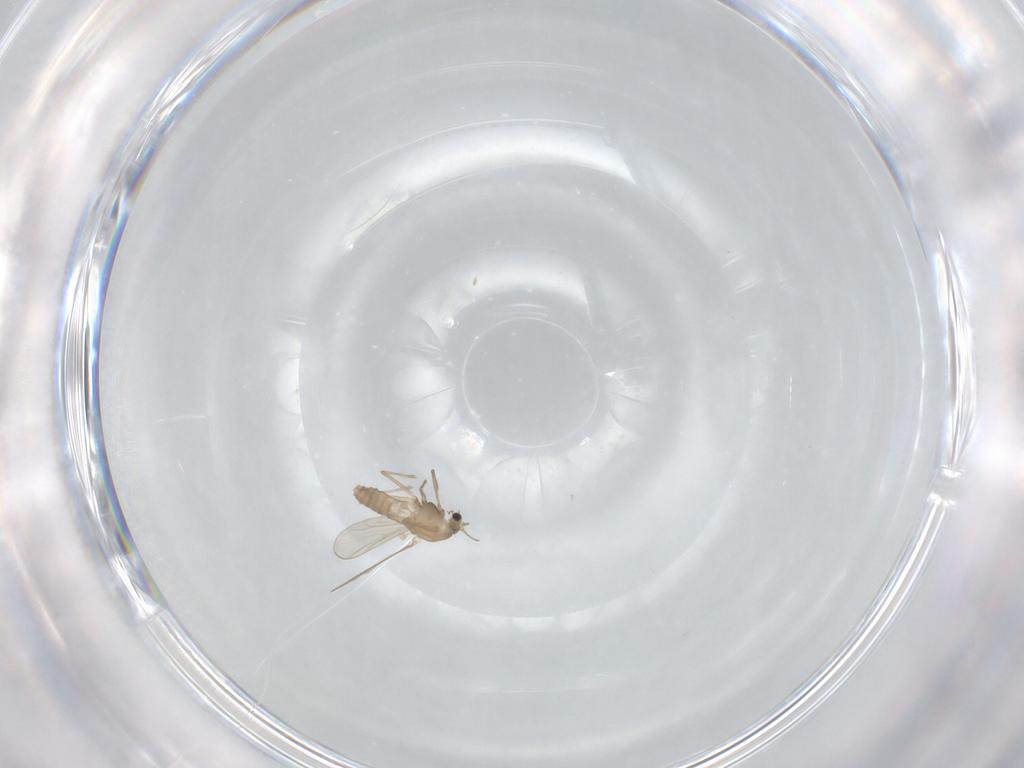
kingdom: Animalia
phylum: Arthropoda
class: Insecta
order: Diptera
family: Chironomidae
